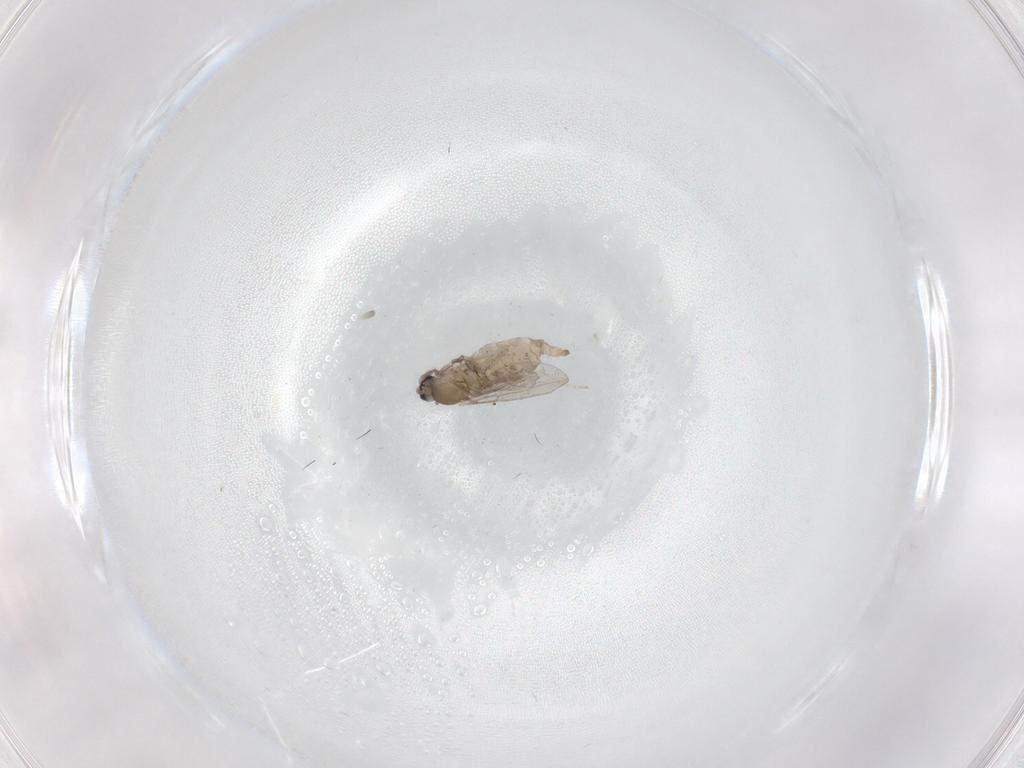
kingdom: Animalia
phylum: Arthropoda
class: Insecta
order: Diptera
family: Cecidomyiidae
